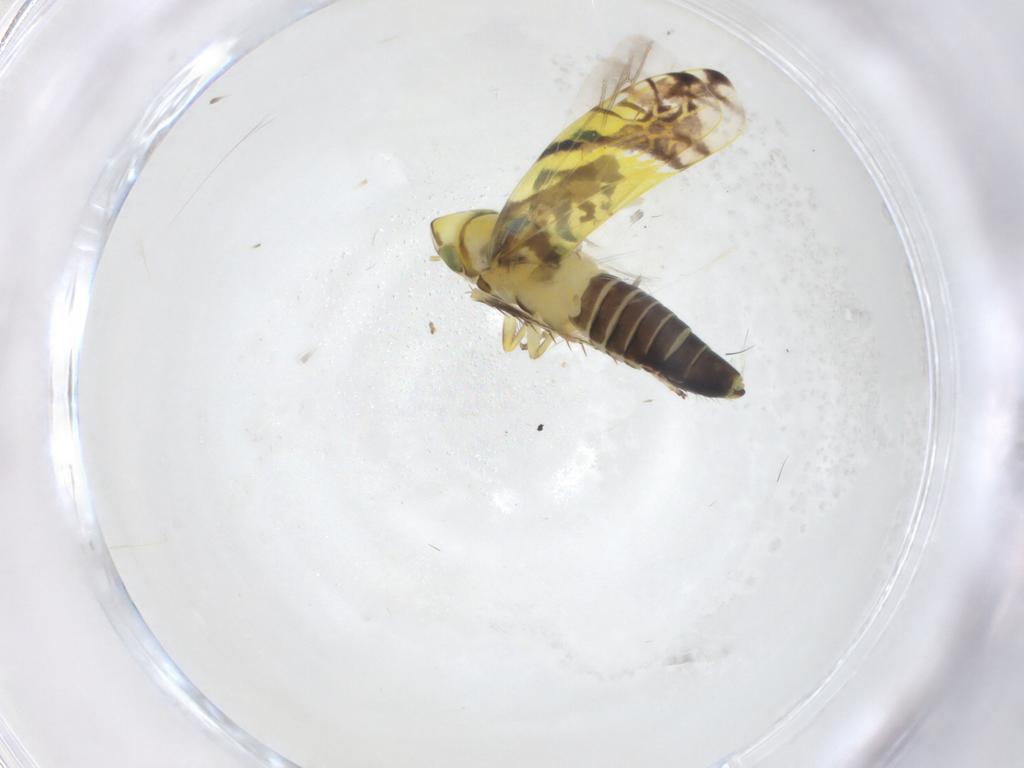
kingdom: Animalia
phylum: Arthropoda
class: Insecta
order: Hemiptera
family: Cicadellidae
